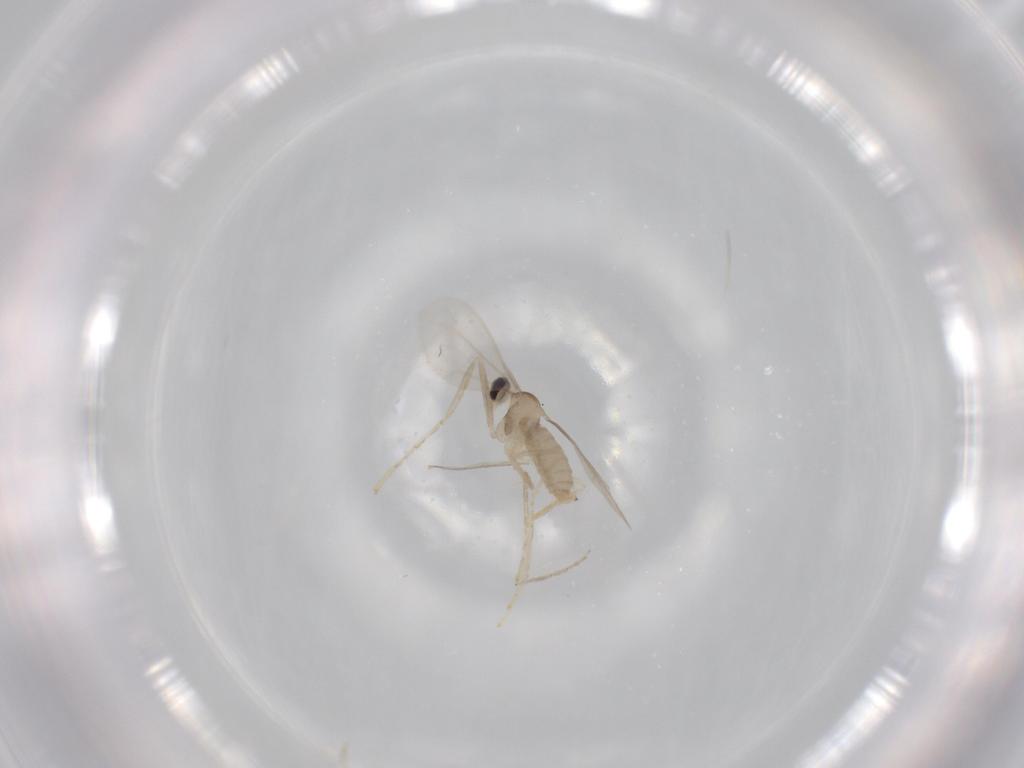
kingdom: Animalia
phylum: Arthropoda
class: Insecta
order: Diptera
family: Cecidomyiidae
